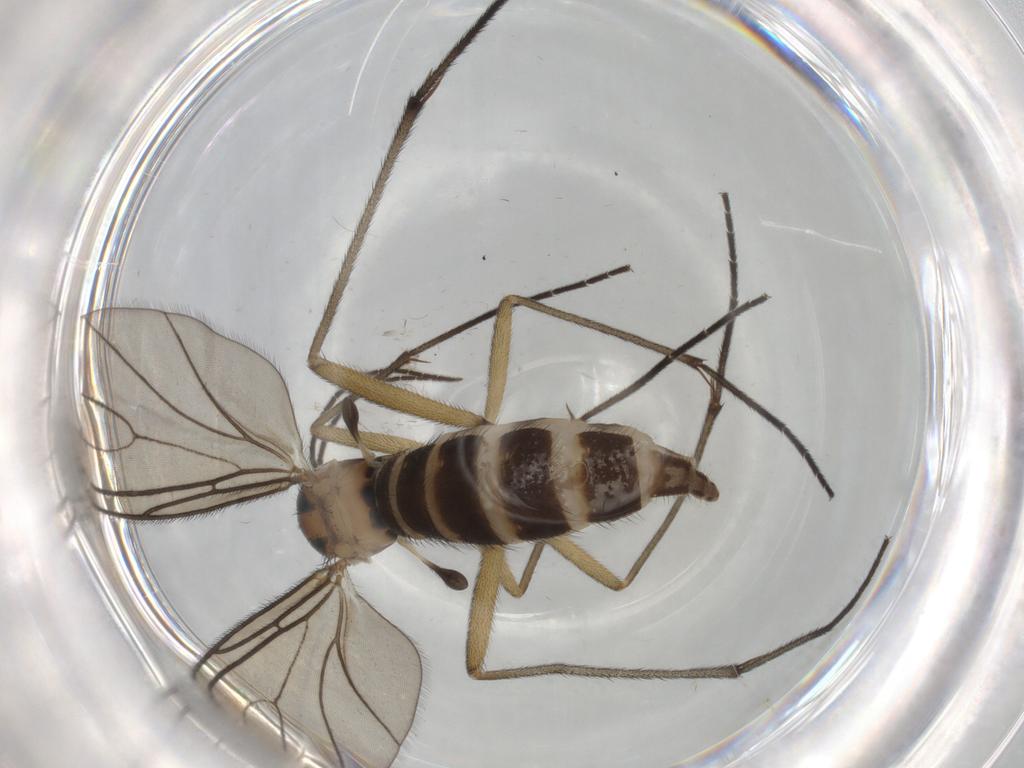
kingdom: Animalia
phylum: Arthropoda
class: Insecta
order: Diptera
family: Sciaridae
